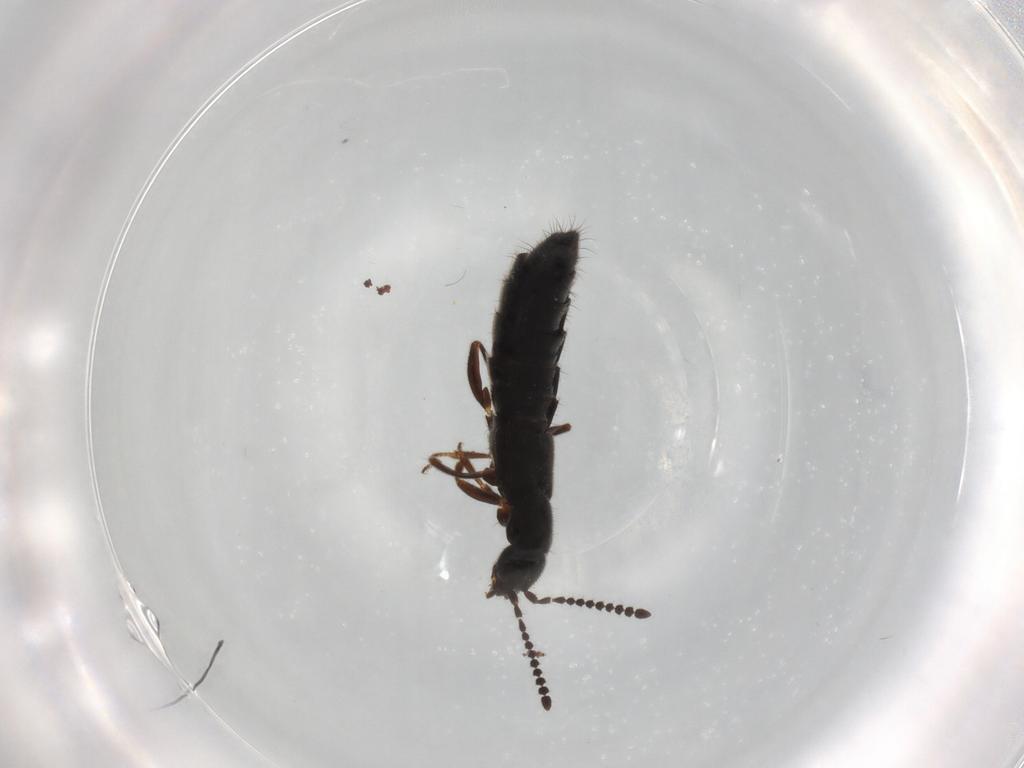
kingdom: Animalia
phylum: Arthropoda
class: Insecta
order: Coleoptera
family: Staphylinidae
